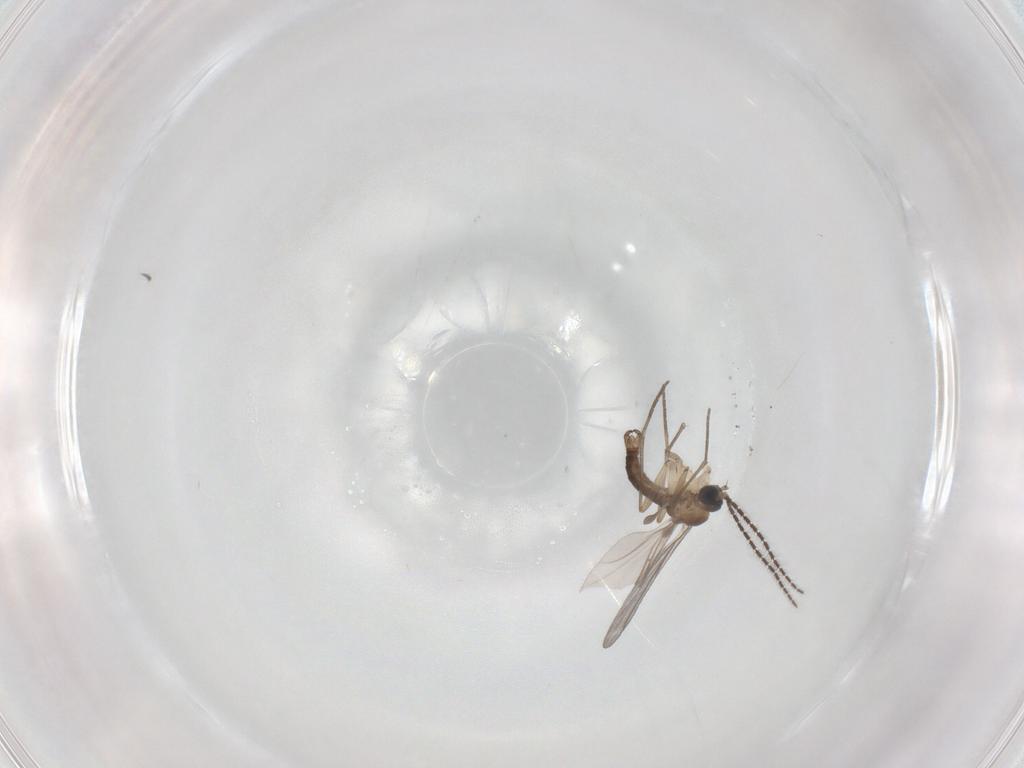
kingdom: Animalia
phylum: Arthropoda
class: Insecta
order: Diptera
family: Sciaridae
